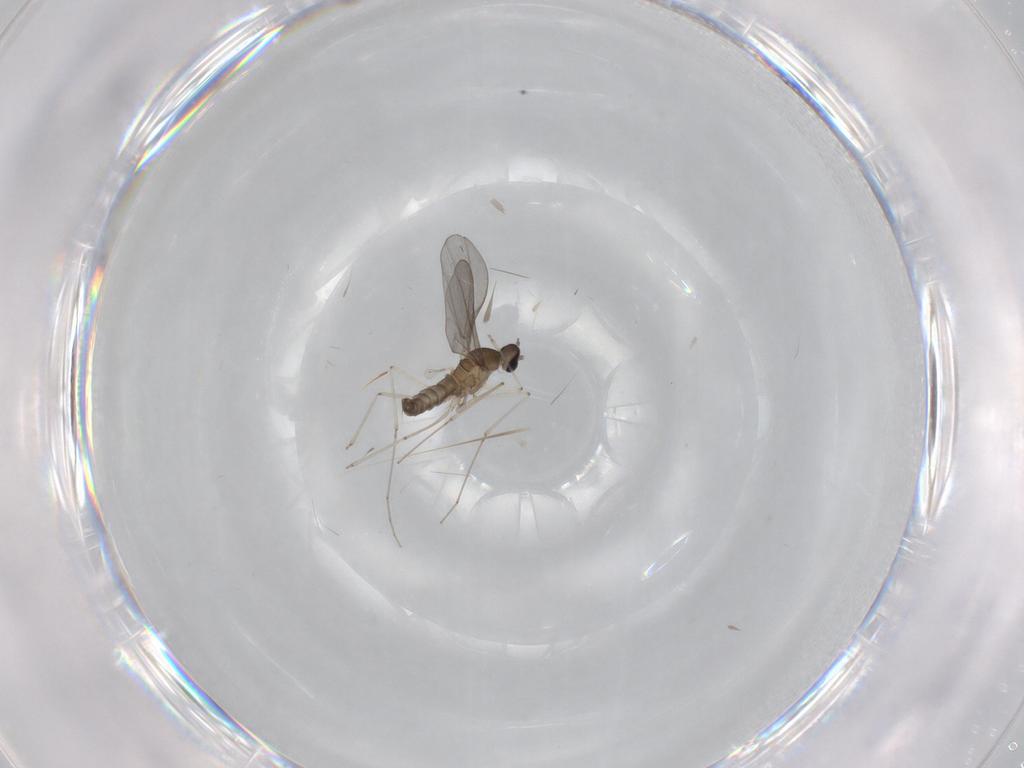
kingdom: Animalia
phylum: Arthropoda
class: Insecta
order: Diptera
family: Cecidomyiidae
